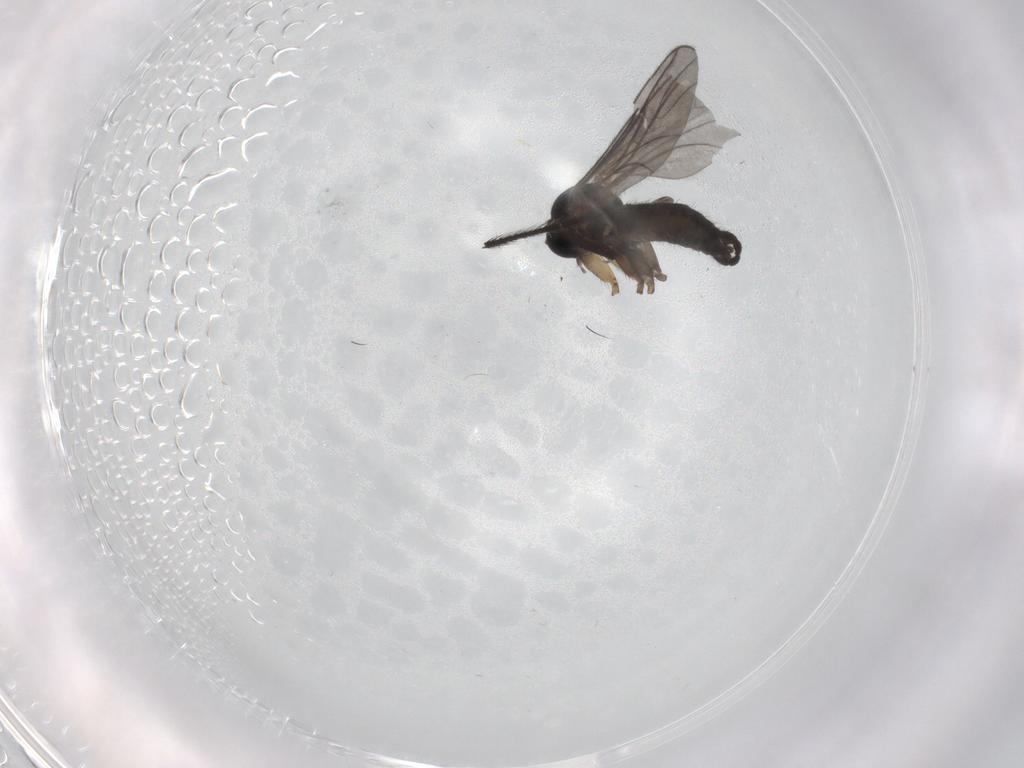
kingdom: Animalia
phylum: Arthropoda
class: Insecta
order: Diptera
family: Sciaridae
